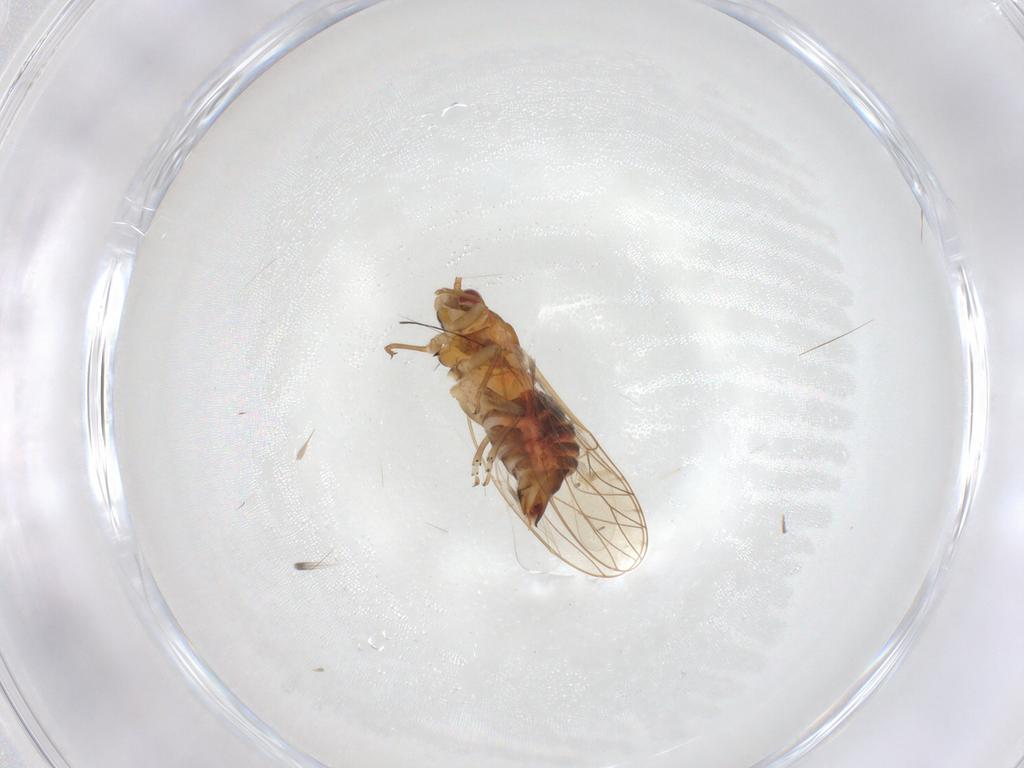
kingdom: Animalia
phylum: Arthropoda
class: Insecta
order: Hemiptera
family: Psyllidae
